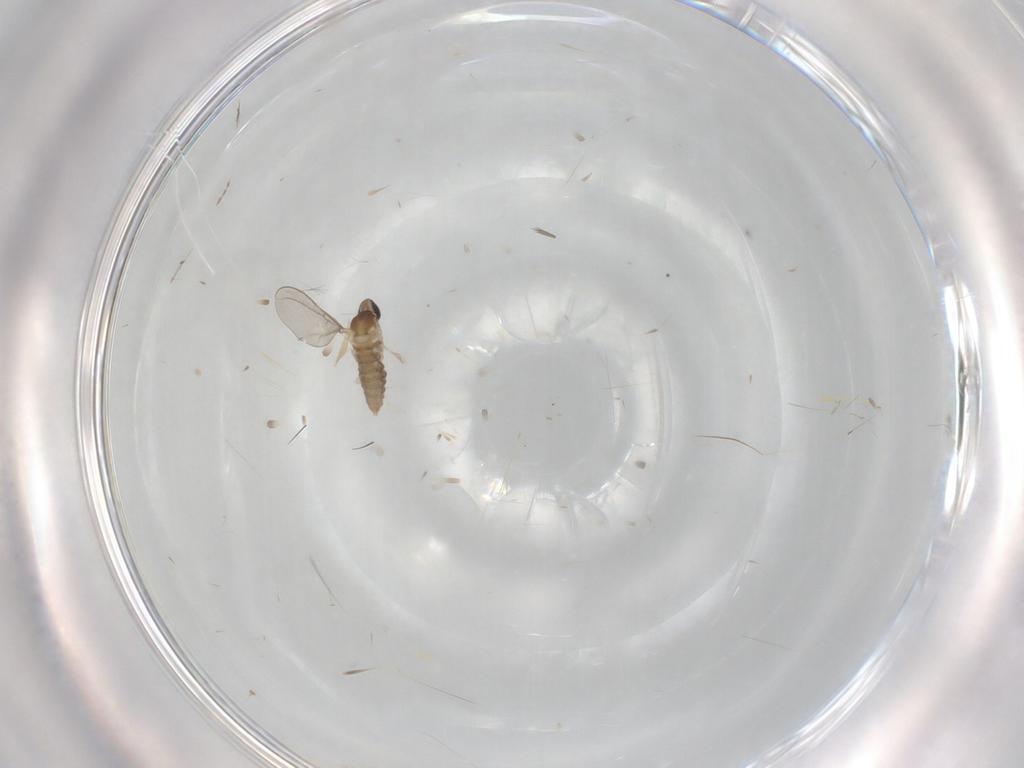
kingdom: Animalia
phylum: Arthropoda
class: Insecta
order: Diptera
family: Cecidomyiidae
